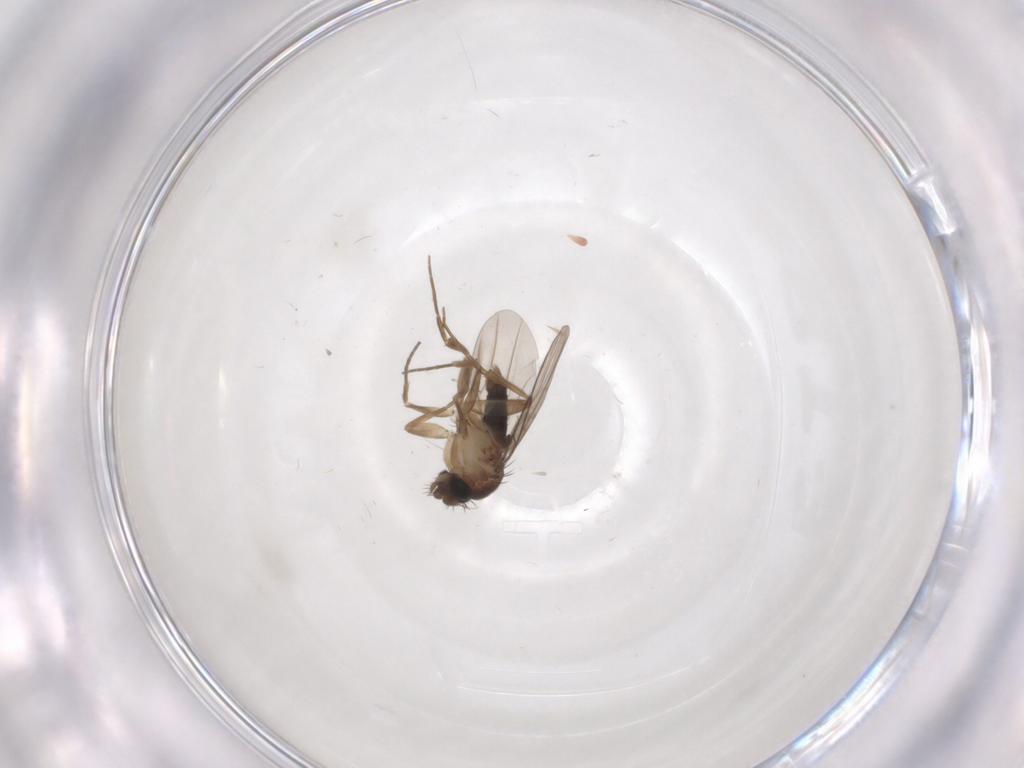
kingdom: Animalia
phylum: Arthropoda
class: Insecta
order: Diptera
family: Phoridae
